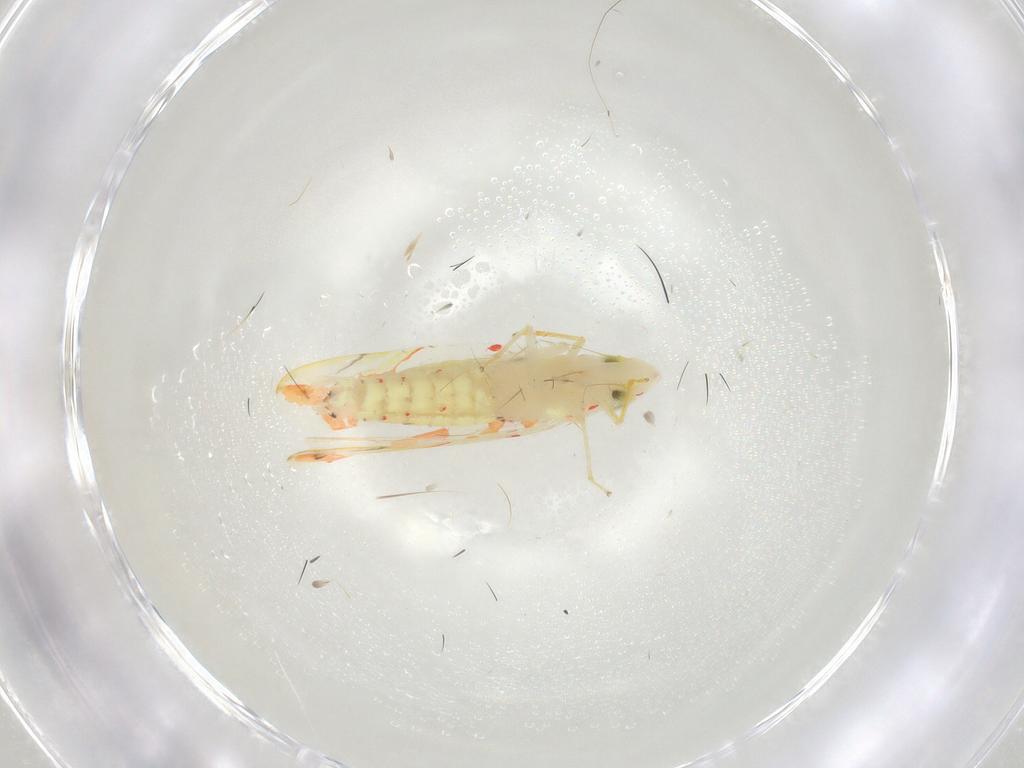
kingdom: Animalia
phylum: Arthropoda
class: Insecta
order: Hemiptera
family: Cicadellidae
